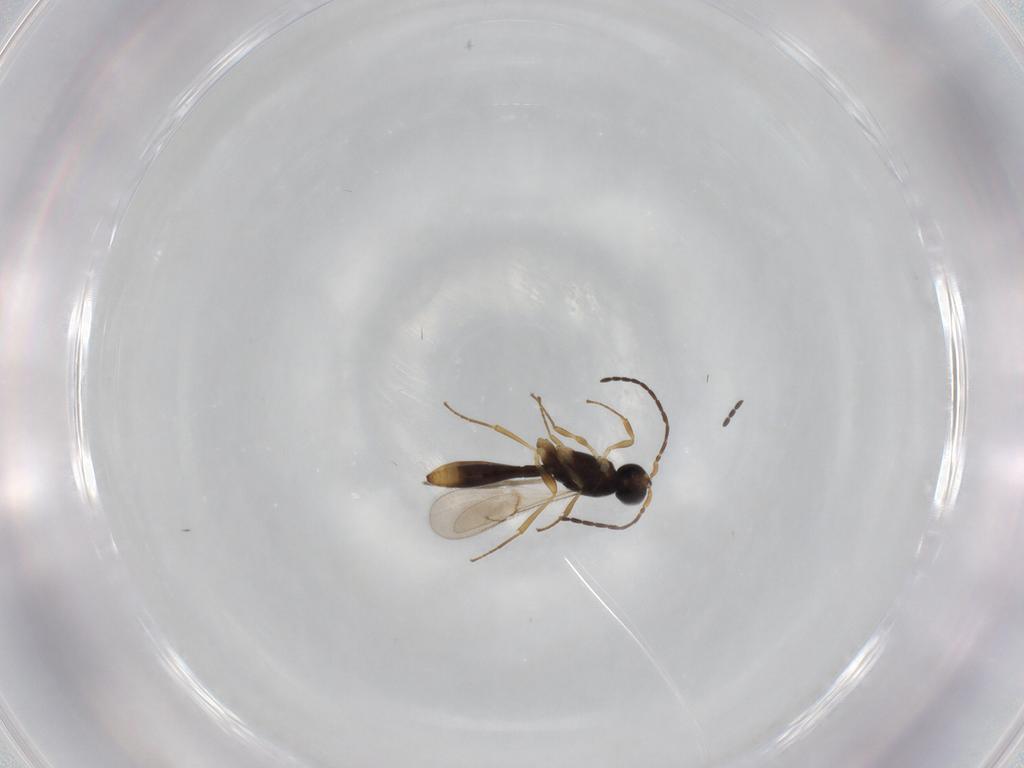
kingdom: Animalia
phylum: Arthropoda
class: Insecta
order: Hymenoptera
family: Scelionidae
